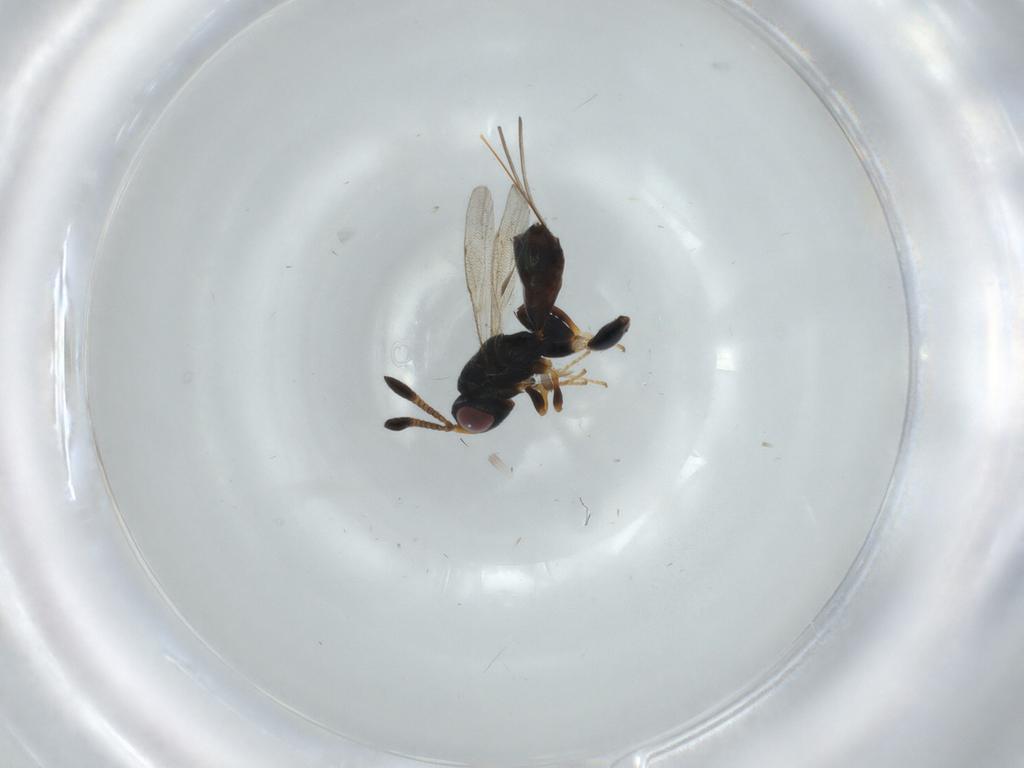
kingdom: Animalia
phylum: Arthropoda
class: Insecta
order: Hymenoptera
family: Torymidae
